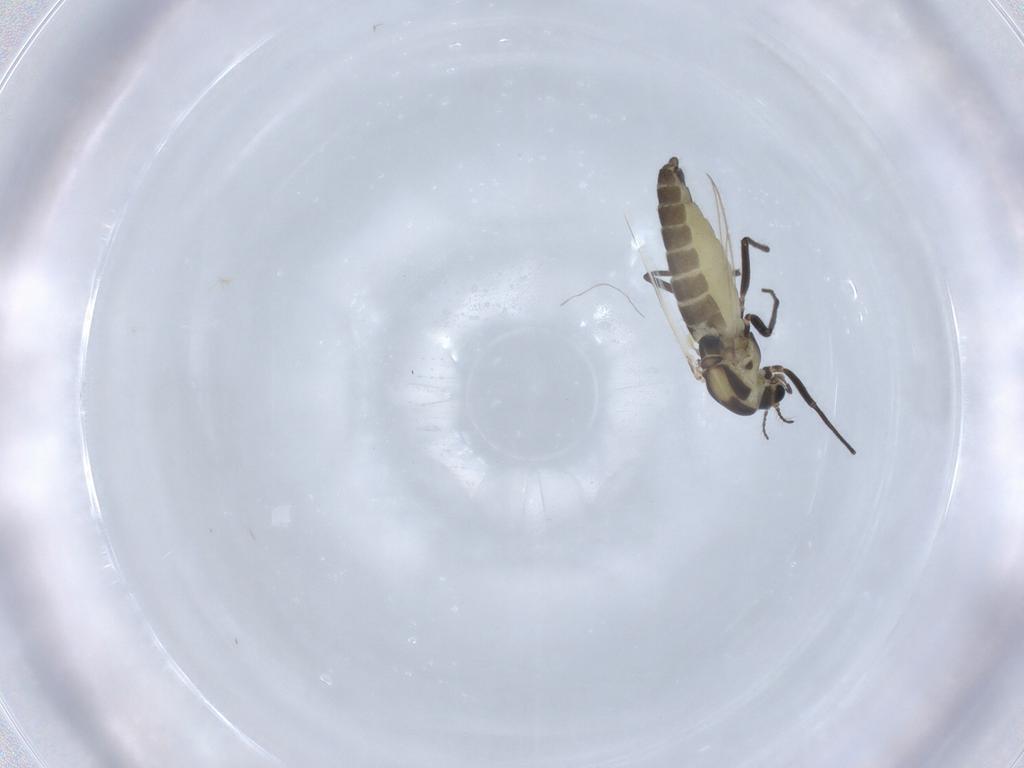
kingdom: Animalia
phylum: Arthropoda
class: Insecta
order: Diptera
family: Chironomidae
